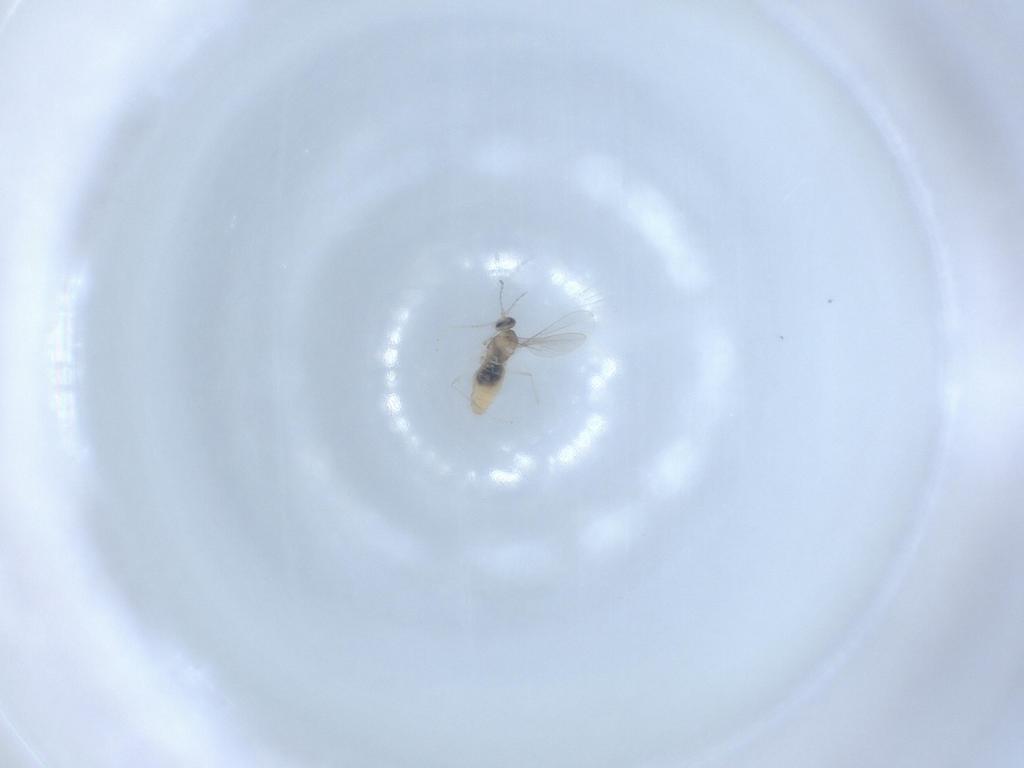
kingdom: Animalia
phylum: Arthropoda
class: Insecta
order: Diptera
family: Cecidomyiidae
